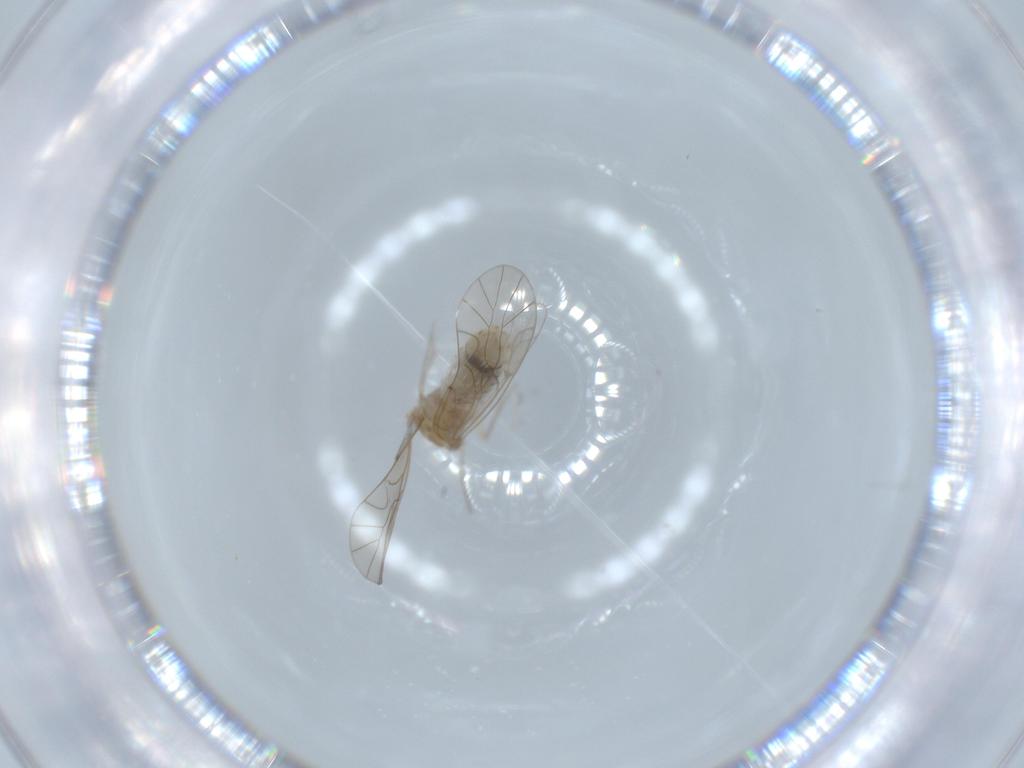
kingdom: Animalia
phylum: Arthropoda
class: Insecta
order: Psocodea
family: Lachesillidae
